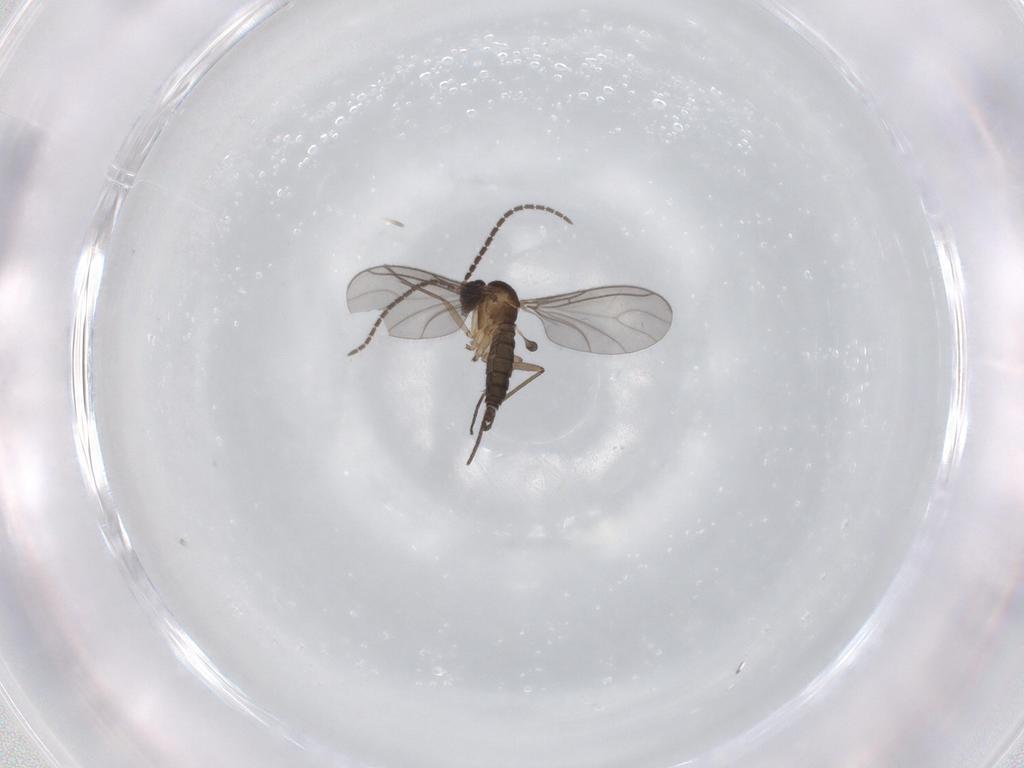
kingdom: Animalia
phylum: Arthropoda
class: Insecta
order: Diptera
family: Sciaridae
